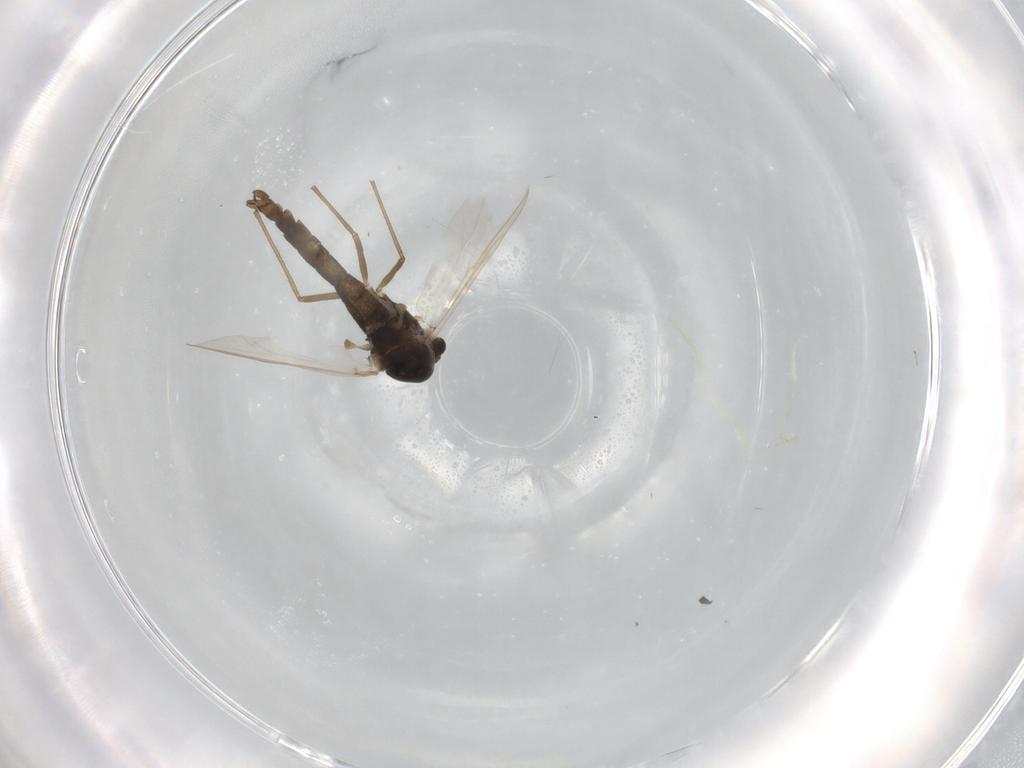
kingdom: Animalia
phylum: Arthropoda
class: Insecta
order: Diptera
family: Chironomidae
